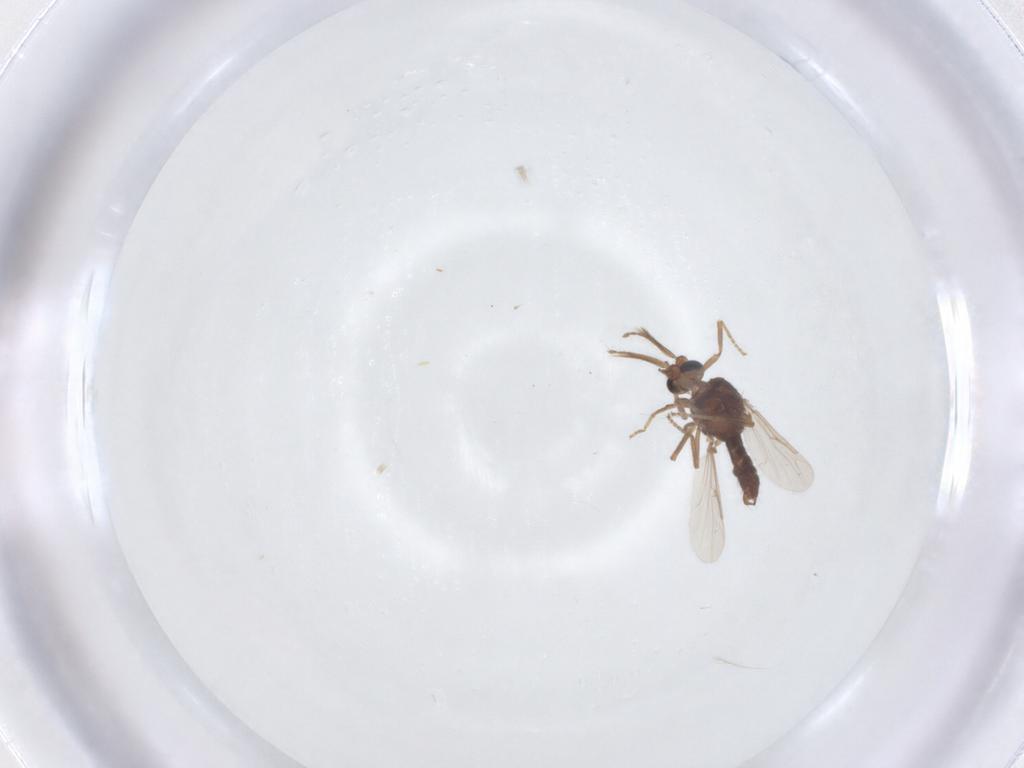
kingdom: Animalia
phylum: Arthropoda
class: Insecta
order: Diptera
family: Ceratopogonidae
